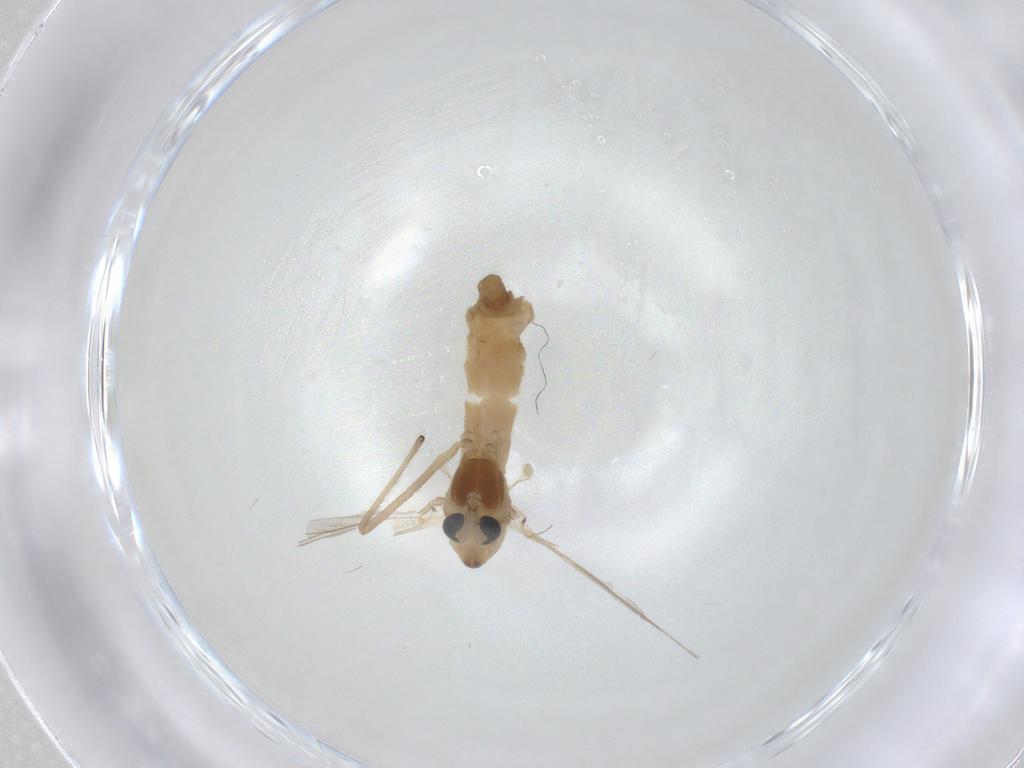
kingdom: Animalia
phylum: Arthropoda
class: Insecta
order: Diptera
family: Chironomidae
